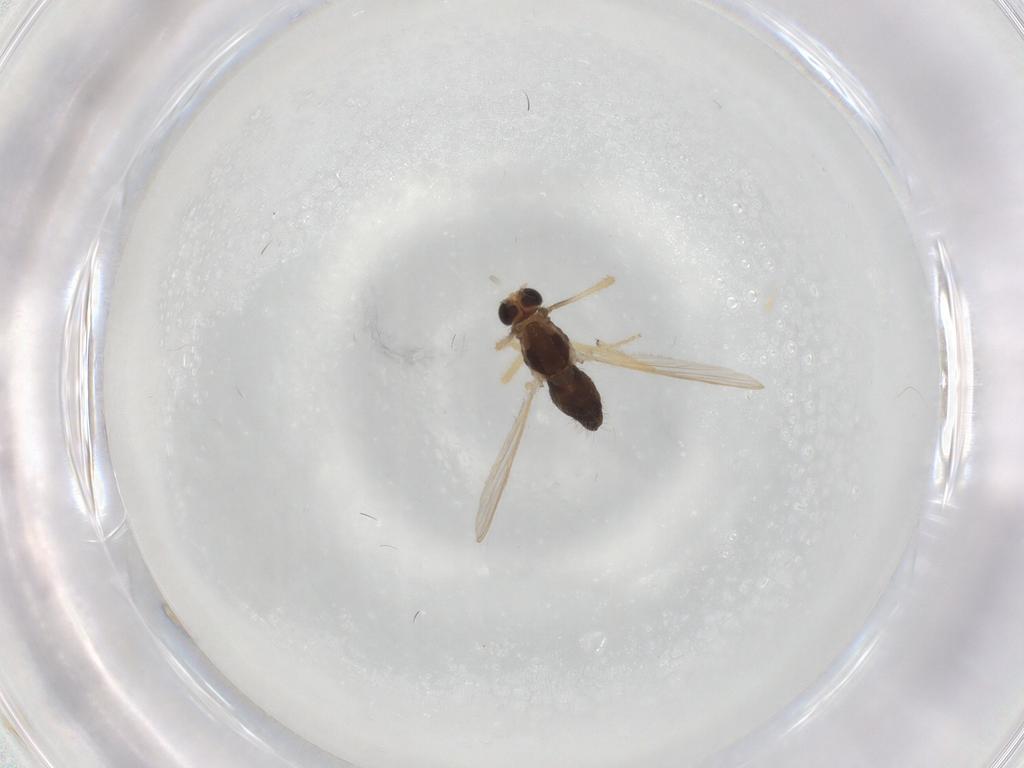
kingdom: Animalia
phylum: Arthropoda
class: Insecta
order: Diptera
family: Chironomidae
